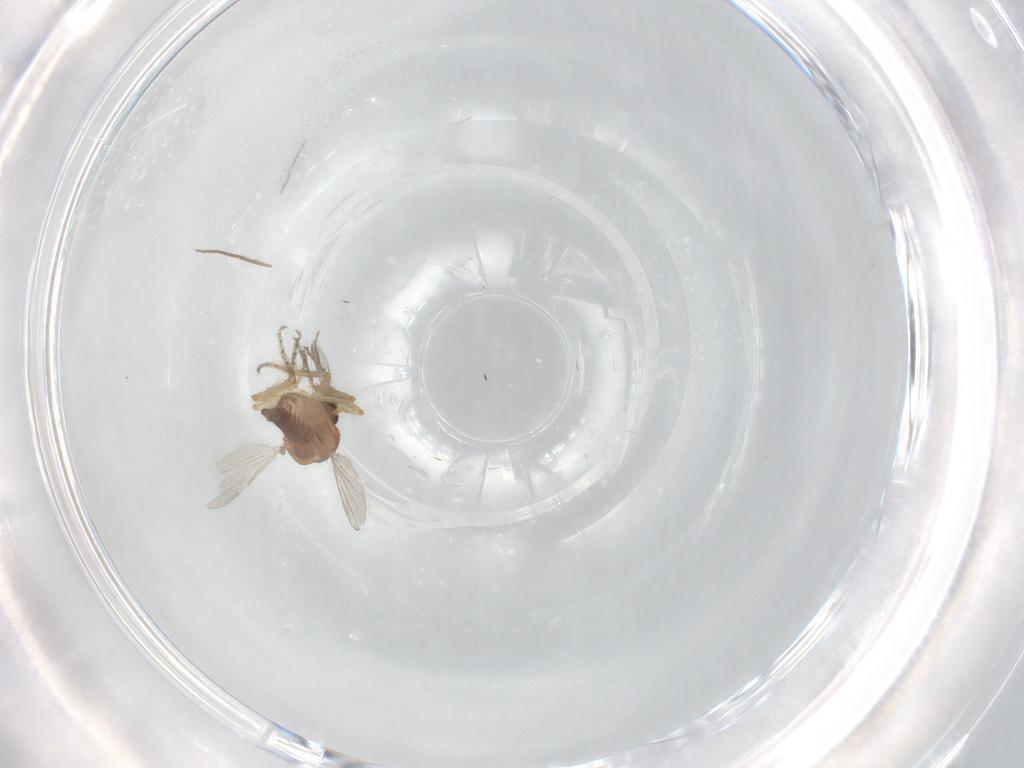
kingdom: Animalia
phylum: Arthropoda
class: Insecta
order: Diptera
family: Ceratopogonidae
